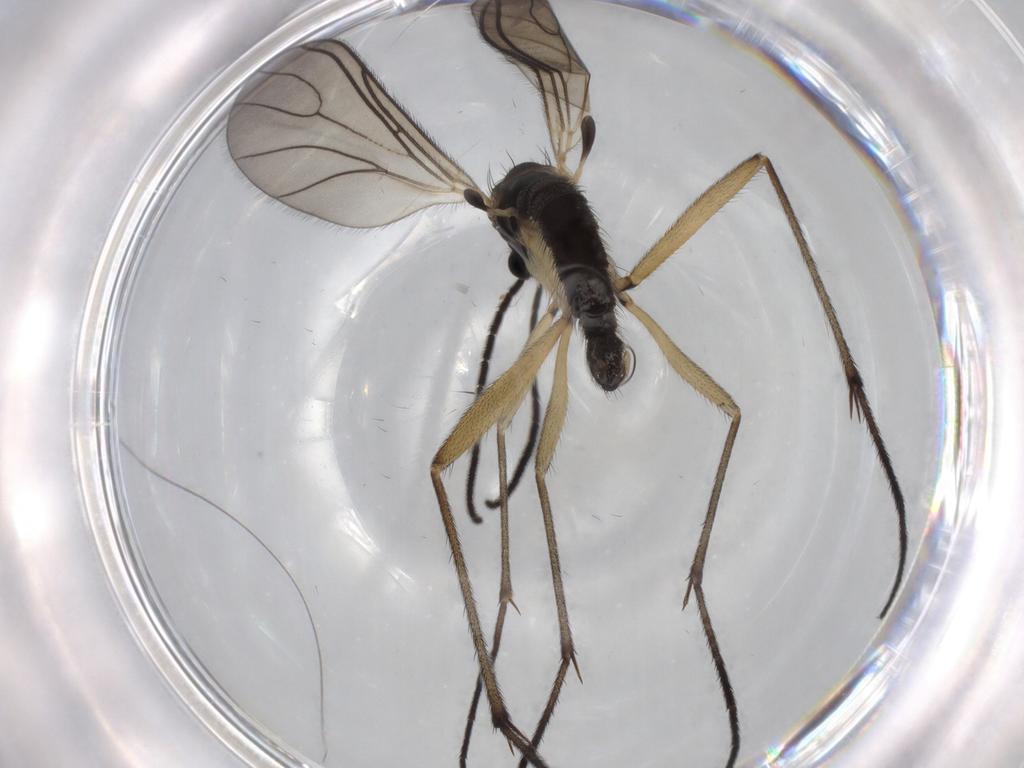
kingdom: Animalia
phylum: Arthropoda
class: Insecta
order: Diptera
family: Sciaridae
